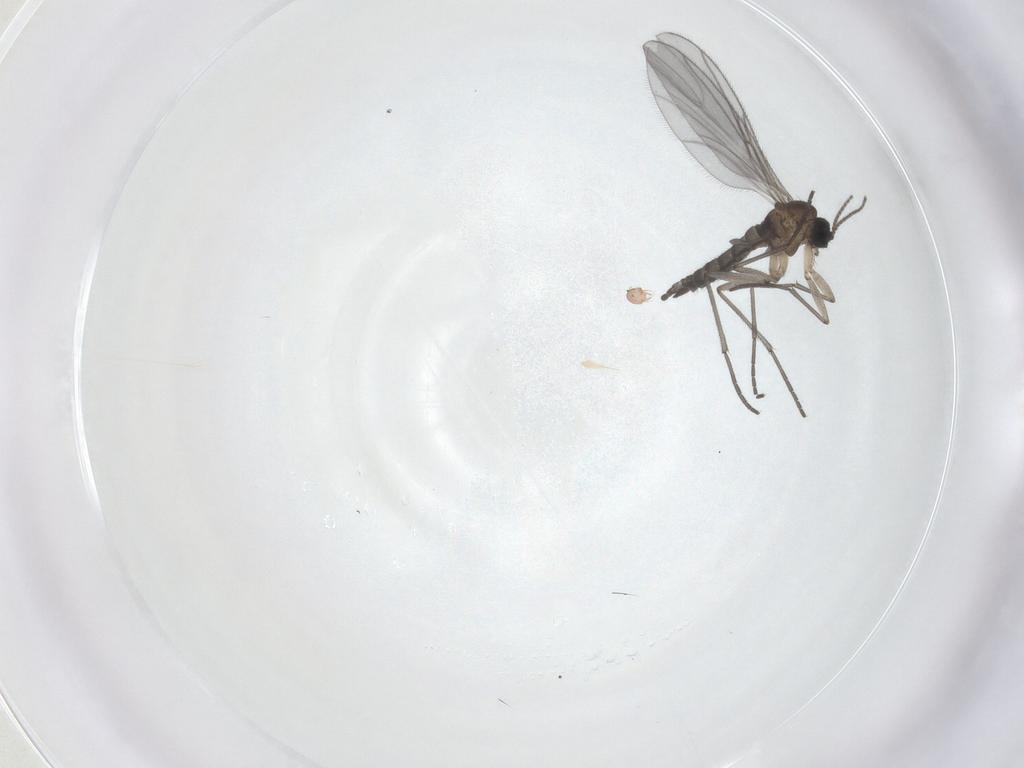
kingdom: Animalia
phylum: Arthropoda
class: Insecta
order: Diptera
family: Sciaridae
